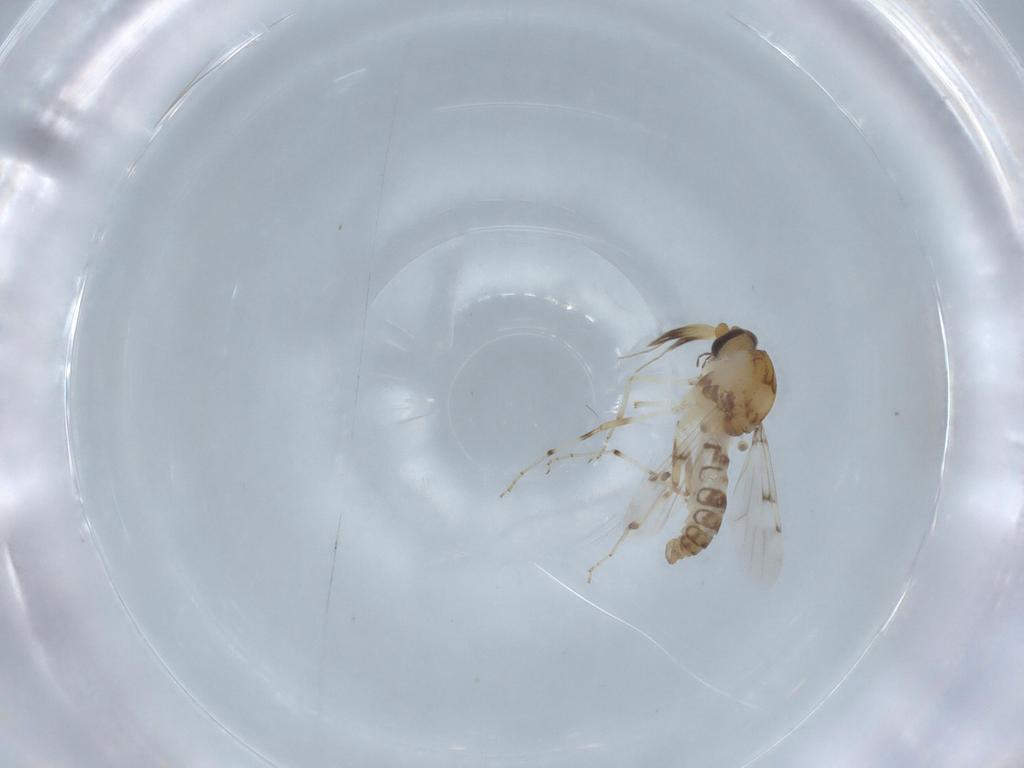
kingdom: Animalia
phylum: Arthropoda
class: Insecta
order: Diptera
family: Ceratopogonidae
